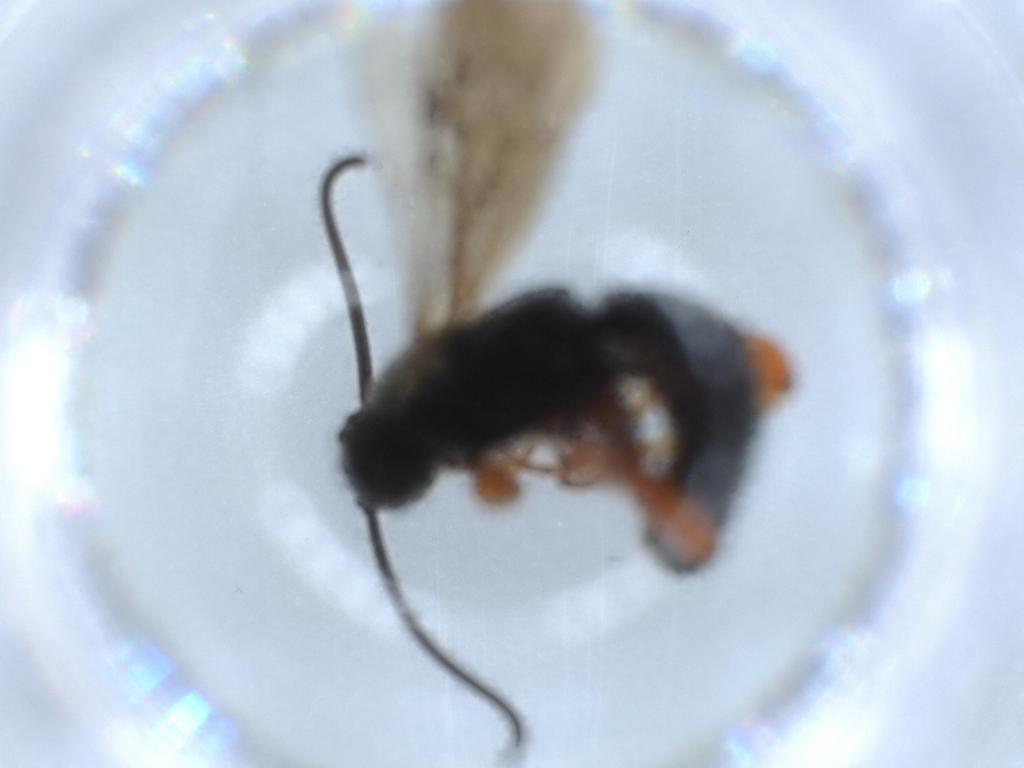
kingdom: Animalia
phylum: Arthropoda
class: Insecta
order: Hymenoptera
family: Ichneumonidae
